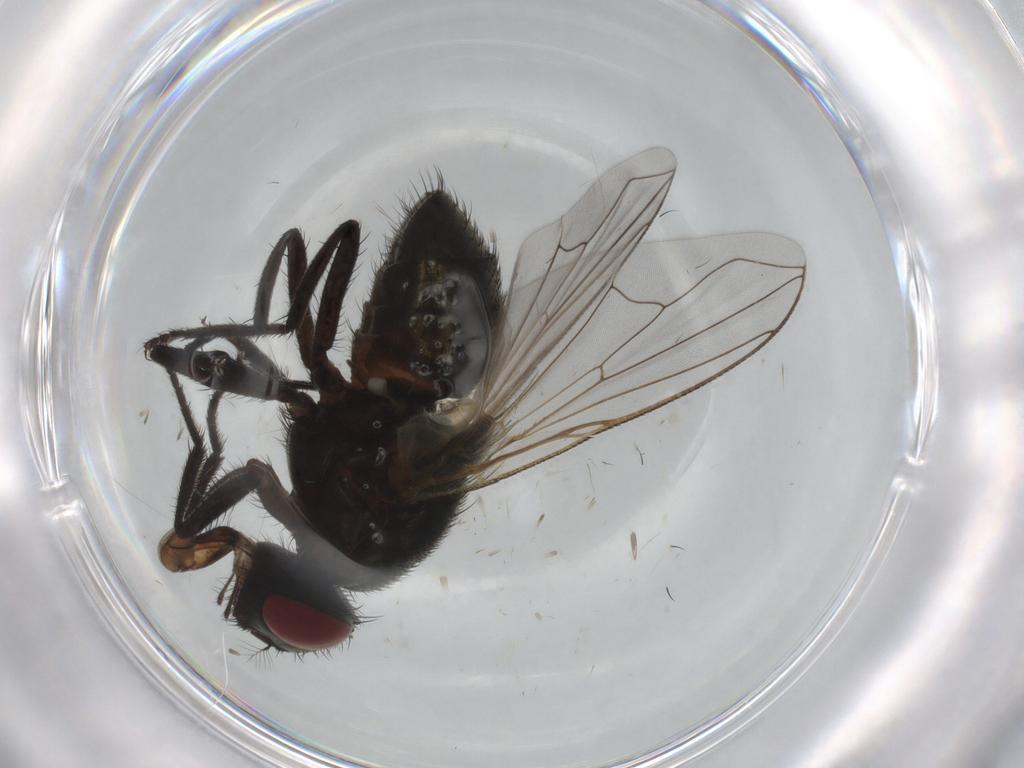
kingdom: Animalia
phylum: Arthropoda
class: Insecta
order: Diptera
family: Muscidae
